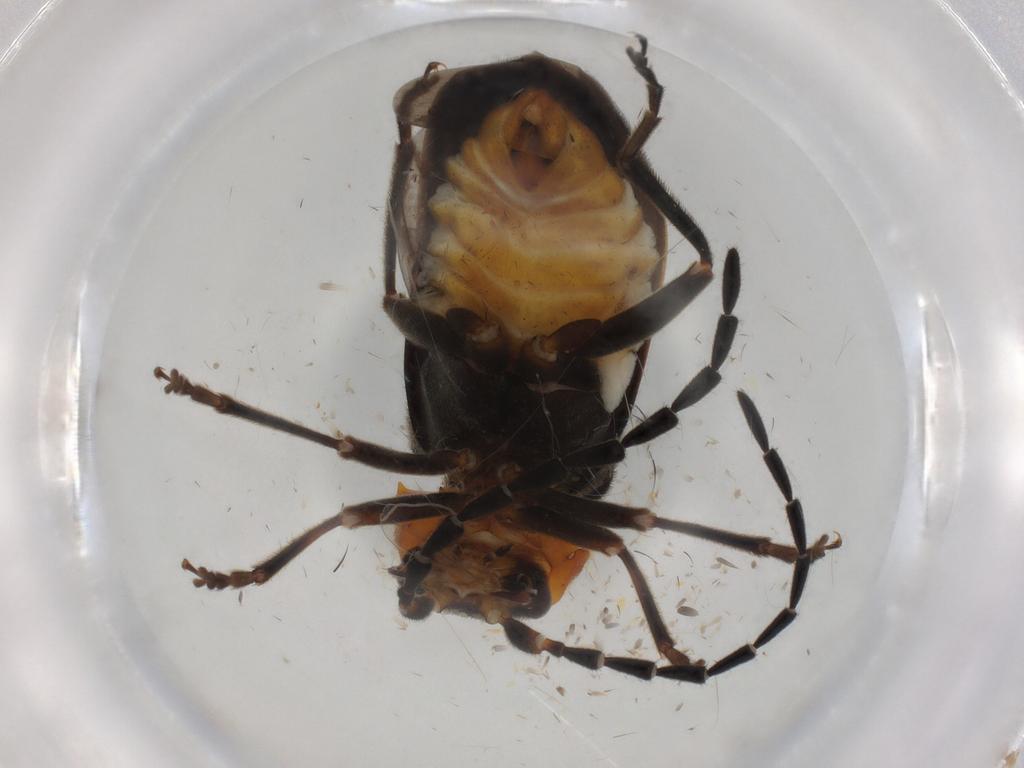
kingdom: Animalia
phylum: Arthropoda
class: Insecta
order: Coleoptera
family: Cantharidae
